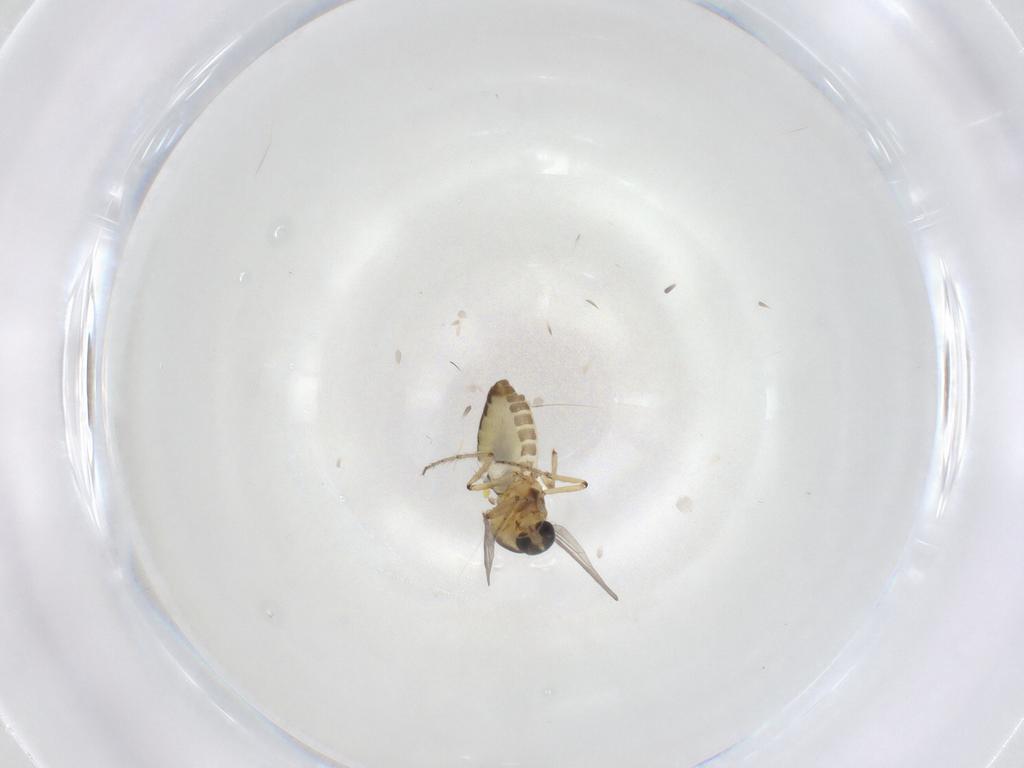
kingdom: Animalia
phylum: Arthropoda
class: Insecta
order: Diptera
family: Ceratopogonidae
